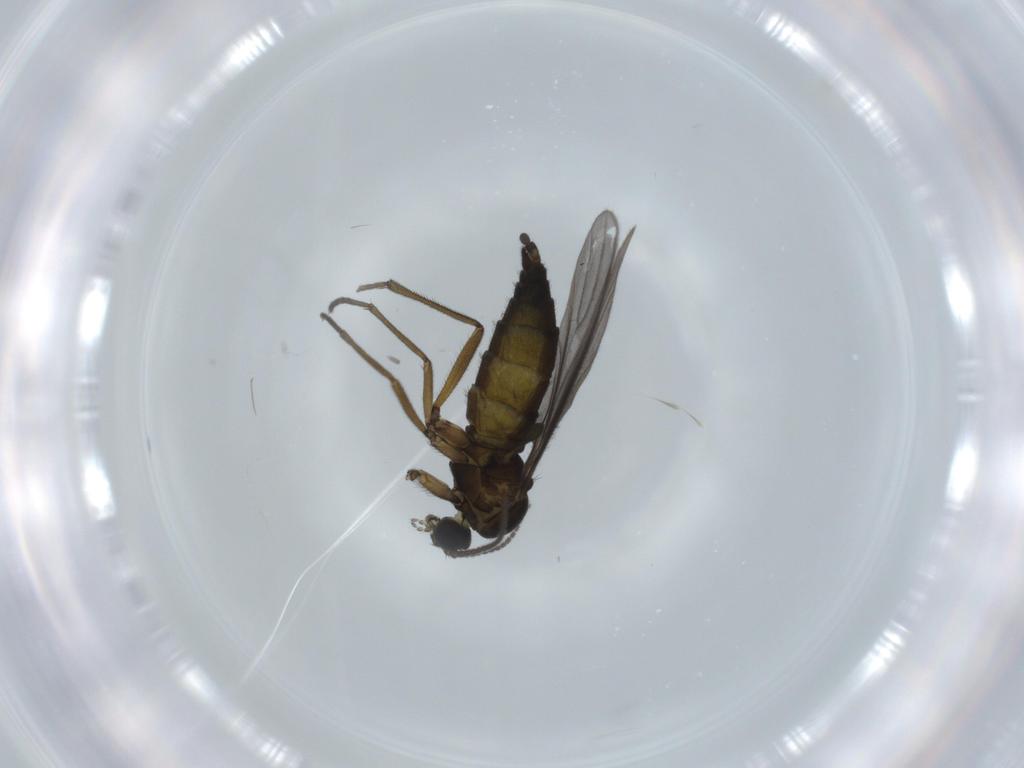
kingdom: Animalia
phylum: Arthropoda
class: Insecta
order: Diptera
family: Sciaridae
